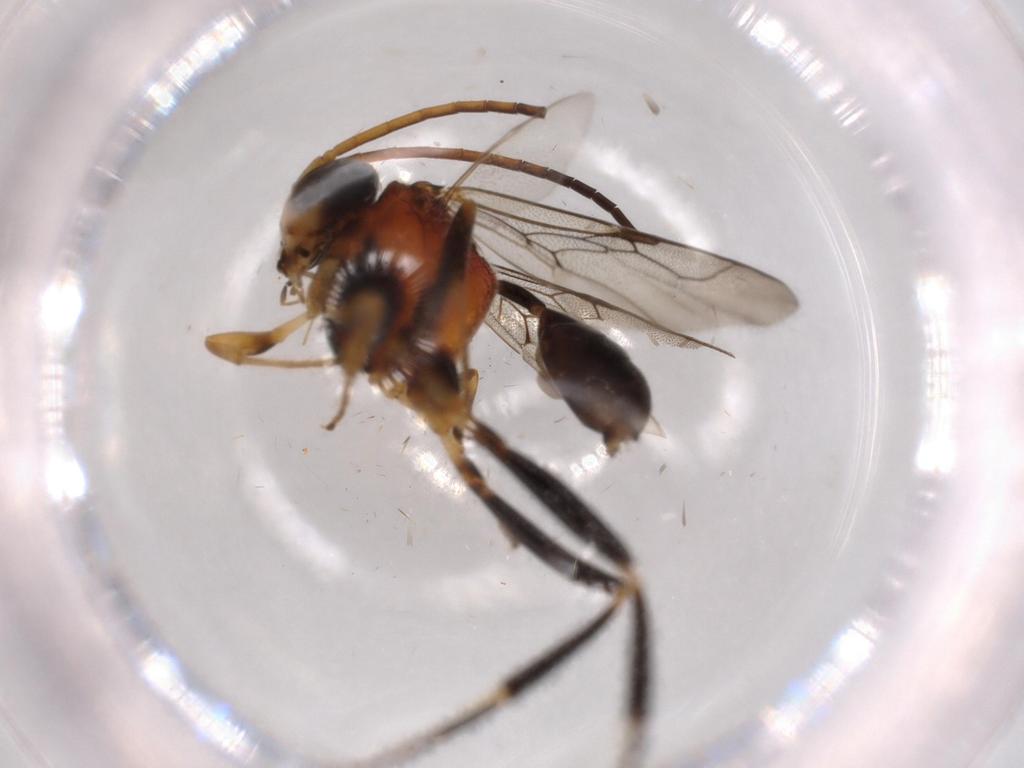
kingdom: Animalia
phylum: Arthropoda
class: Insecta
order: Hymenoptera
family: Evaniidae
